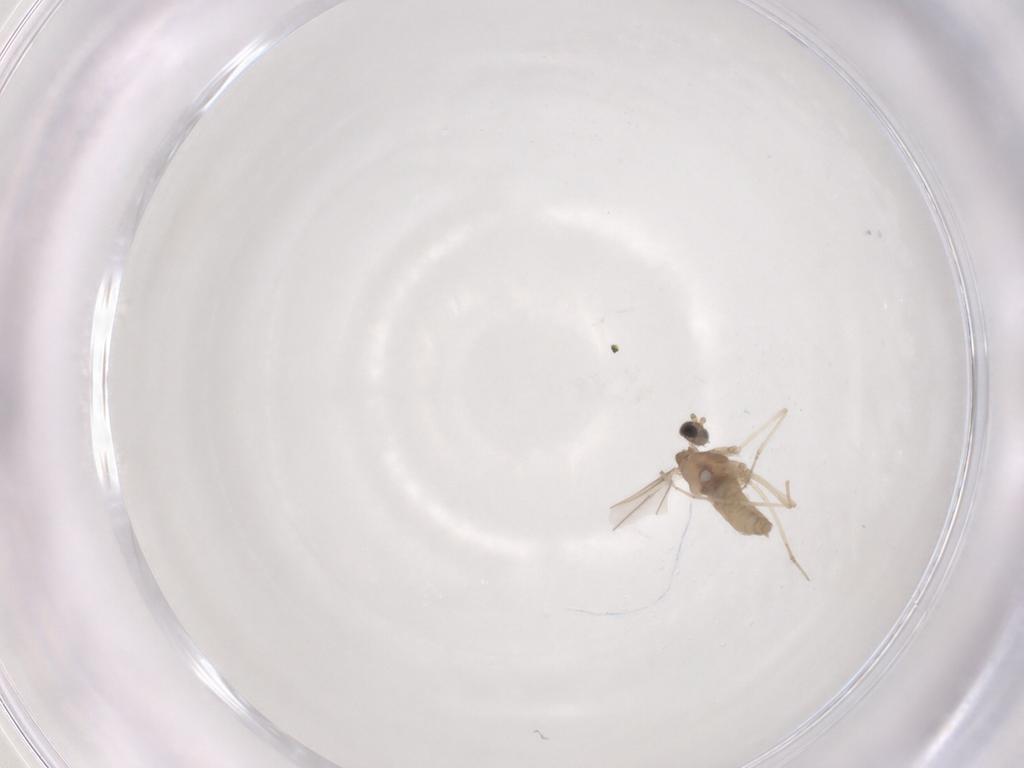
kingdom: Animalia
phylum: Arthropoda
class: Insecta
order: Diptera
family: Cecidomyiidae
